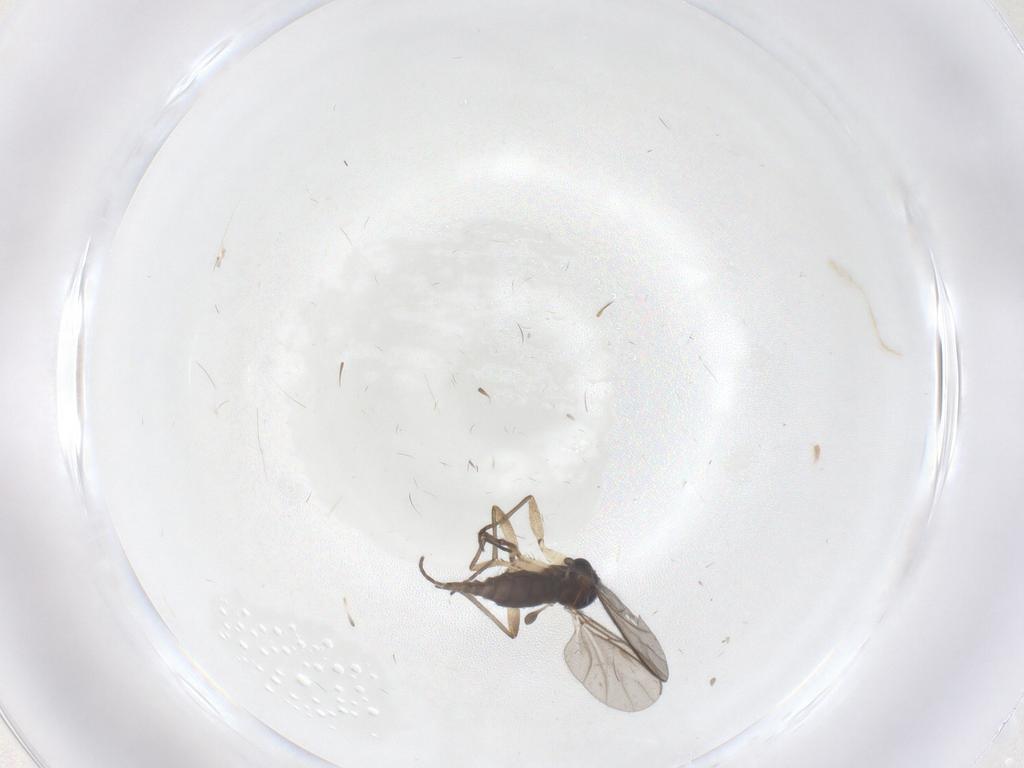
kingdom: Animalia
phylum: Arthropoda
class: Insecta
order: Diptera
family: Sciaridae
